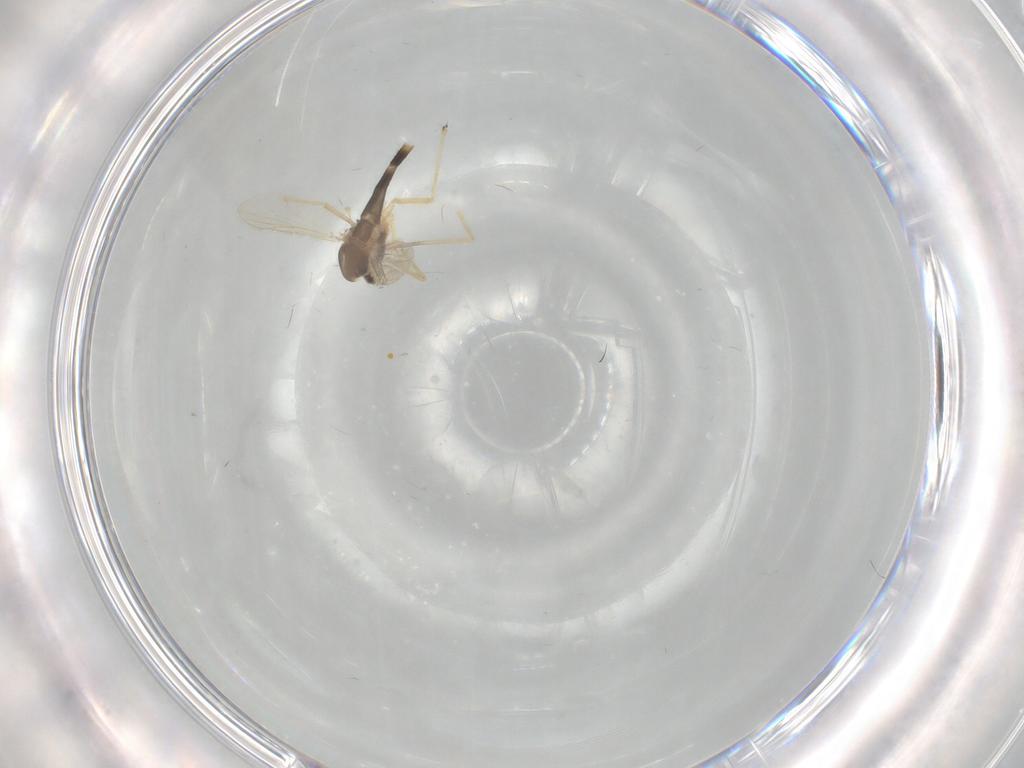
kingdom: Animalia
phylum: Arthropoda
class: Insecta
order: Diptera
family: Chironomidae
